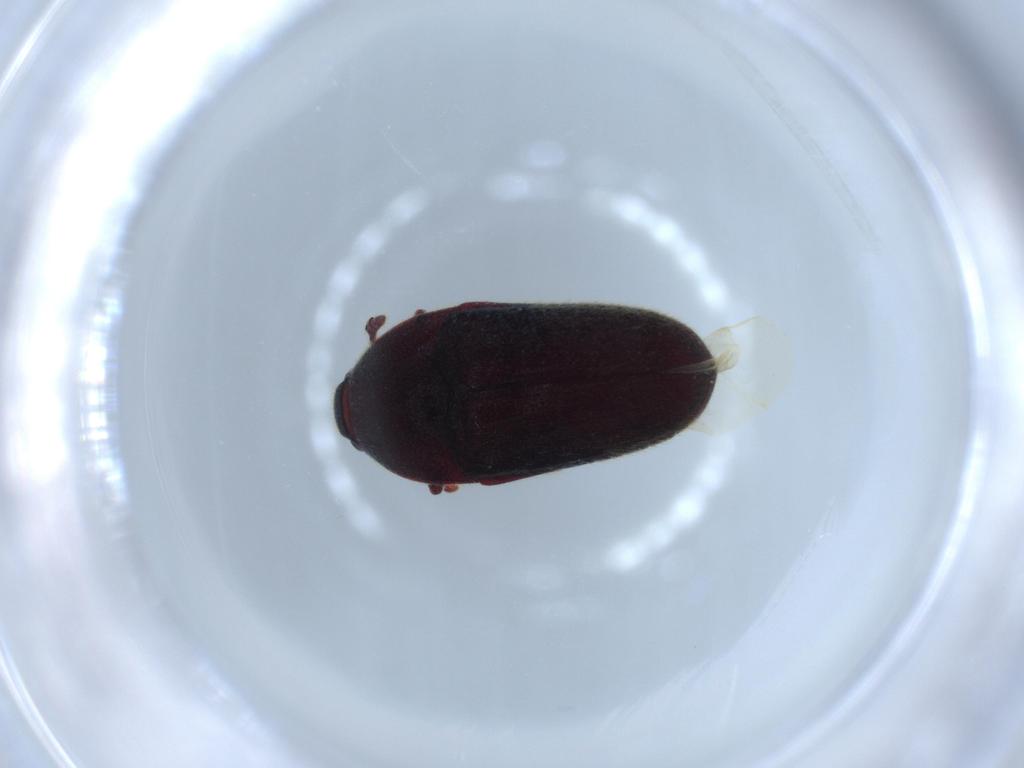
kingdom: Animalia
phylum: Arthropoda
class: Insecta
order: Coleoptera
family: Throscidae
